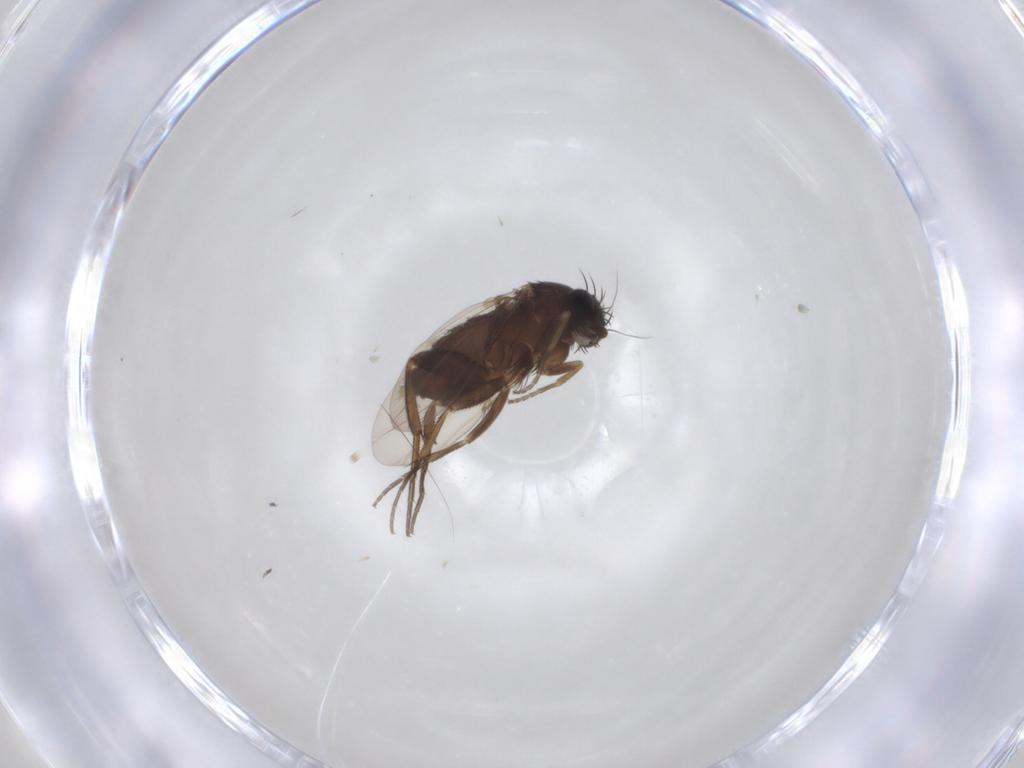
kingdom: Animalia
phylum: Arthropoda
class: Insecta
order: Diptera
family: Phoridae
